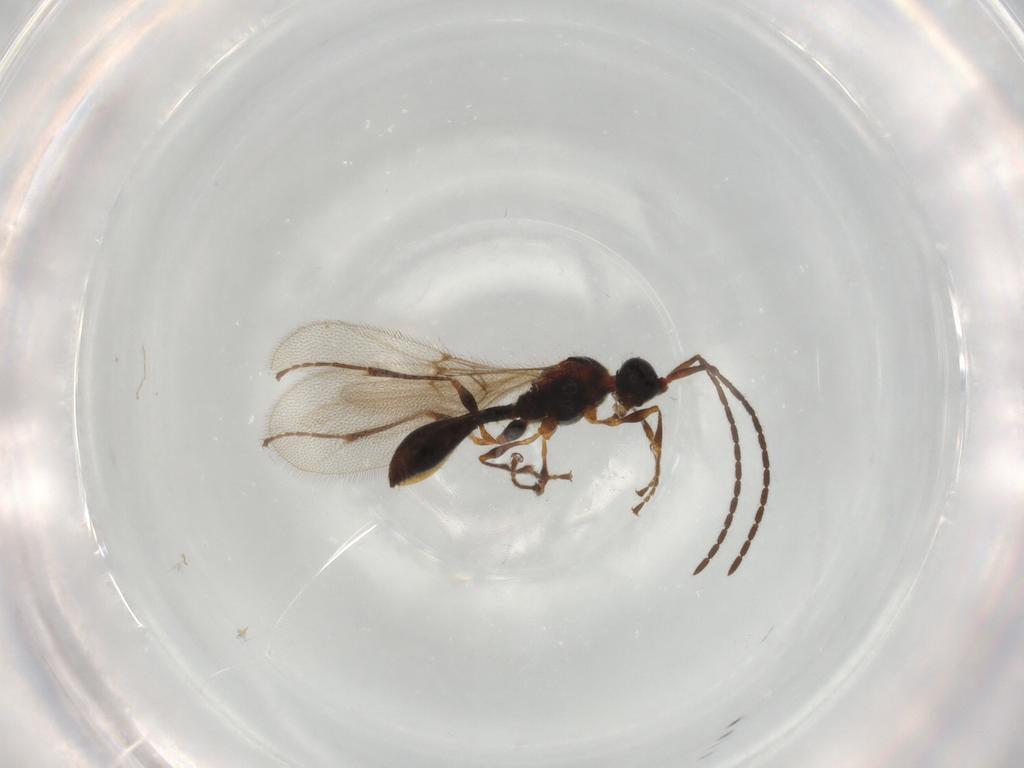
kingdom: Animalia
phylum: Arthropoda
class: Insecta
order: Hymenoptera
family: Diapriidae
